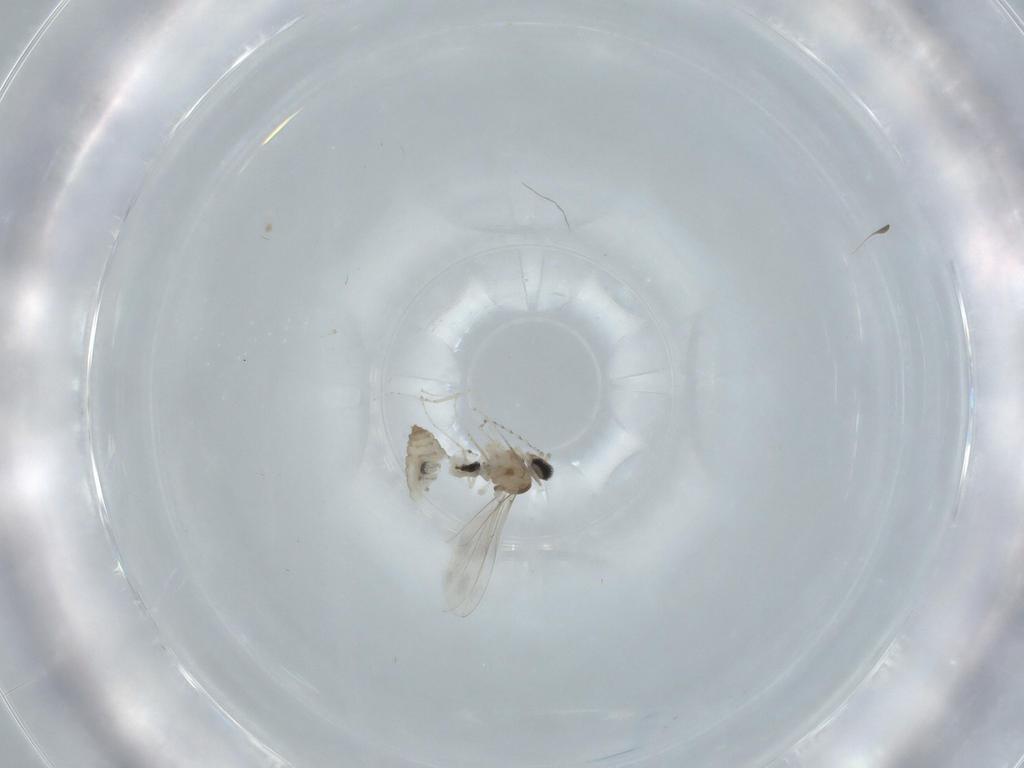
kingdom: Animalia
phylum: Arthropoda
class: Insecta
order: Diptera
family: Cecidomyiidae
